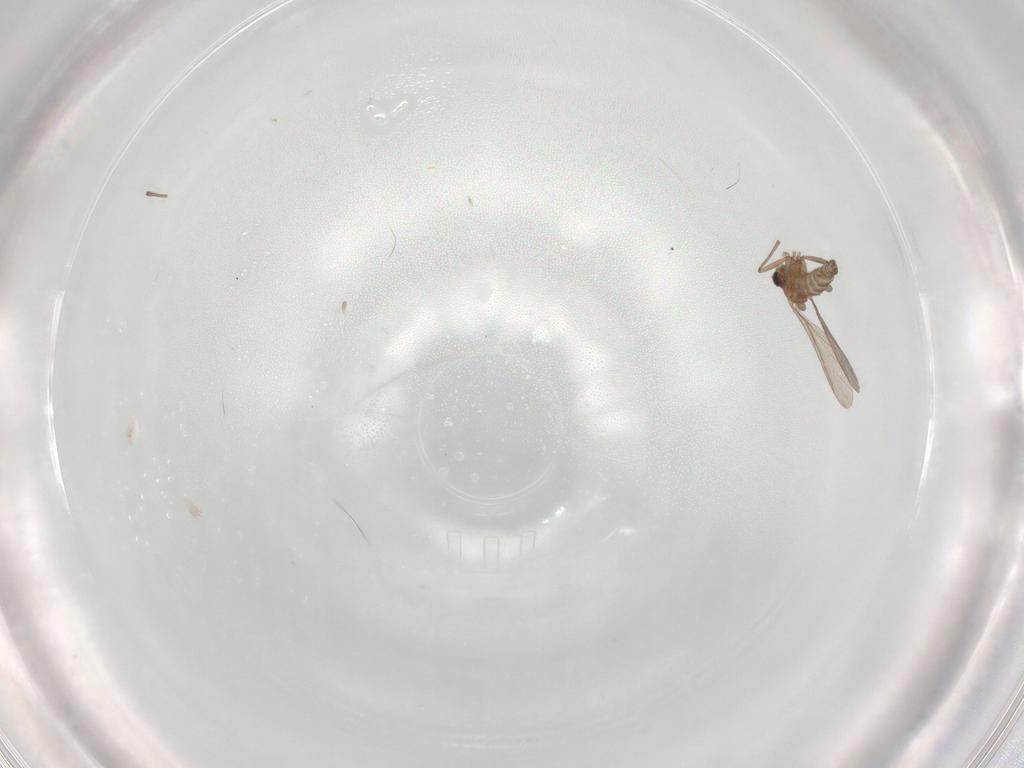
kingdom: Animalia
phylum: Arthropoda
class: Insecta
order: Diptera
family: Sciaridae
